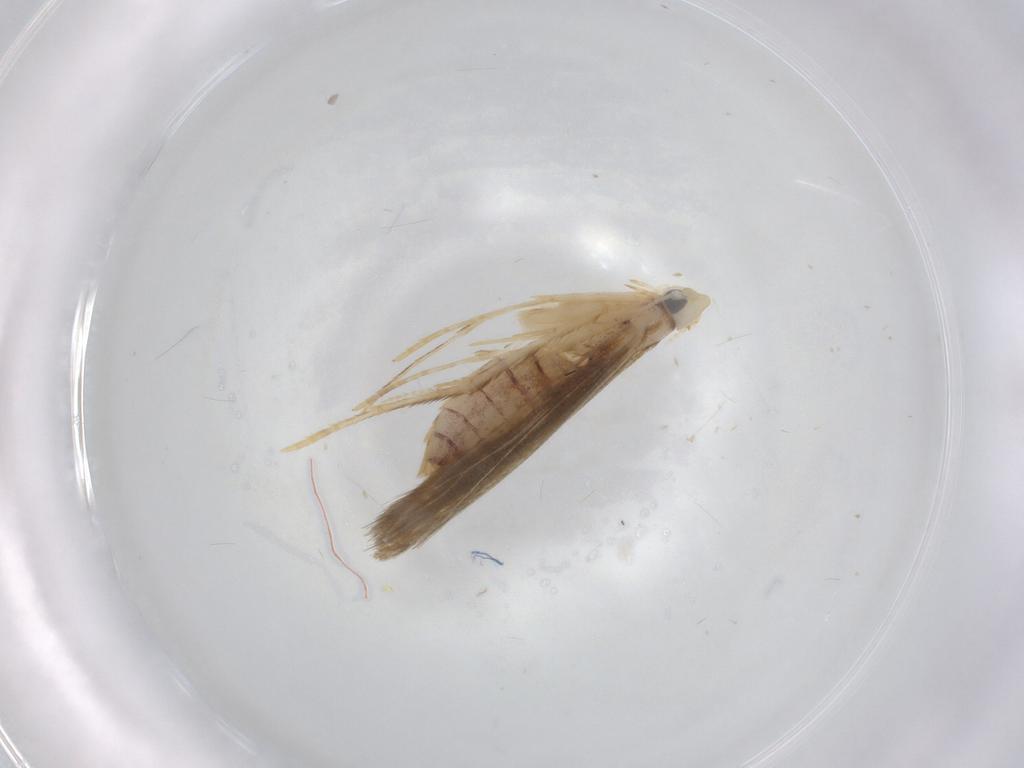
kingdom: Animalia
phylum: Arthropoda
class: Insecta
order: Lepidoptera
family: Lyonetiidae
